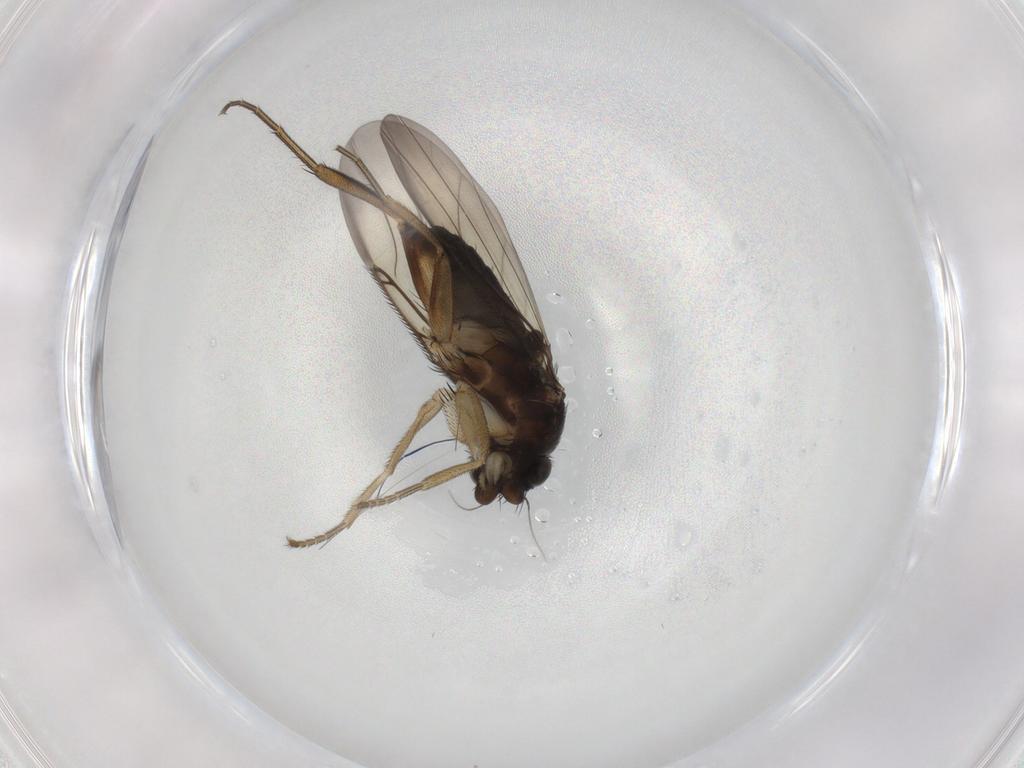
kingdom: Animalia
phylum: Arthropoda
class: Insecta
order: Diptera
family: Phoridae
